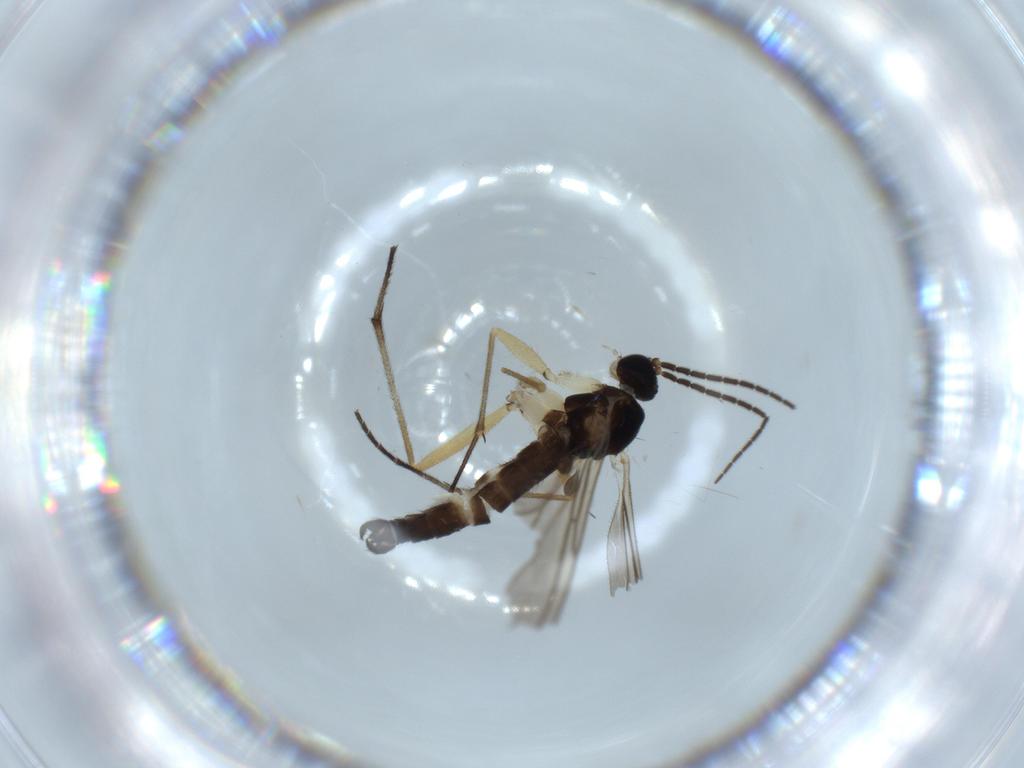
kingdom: Animalia
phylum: Arthropoda
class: Insecta
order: Diptera
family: Sciaridae
